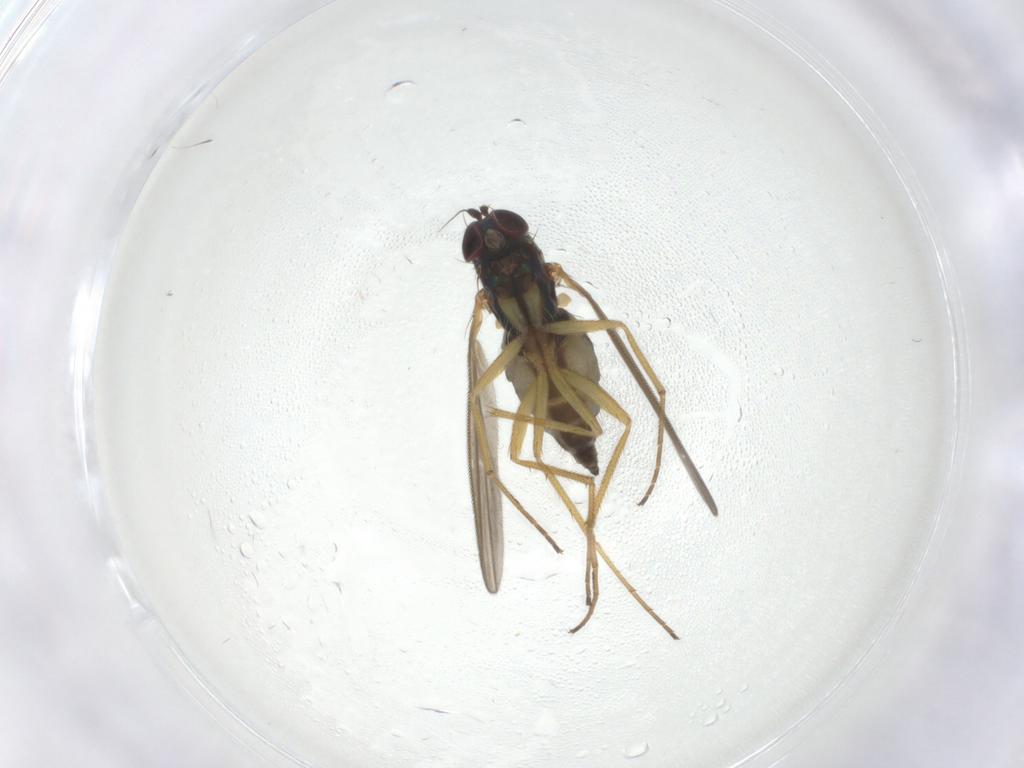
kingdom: Animalia
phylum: Arthropoda
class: Insecta
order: Diptera
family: Dolichopodidae
